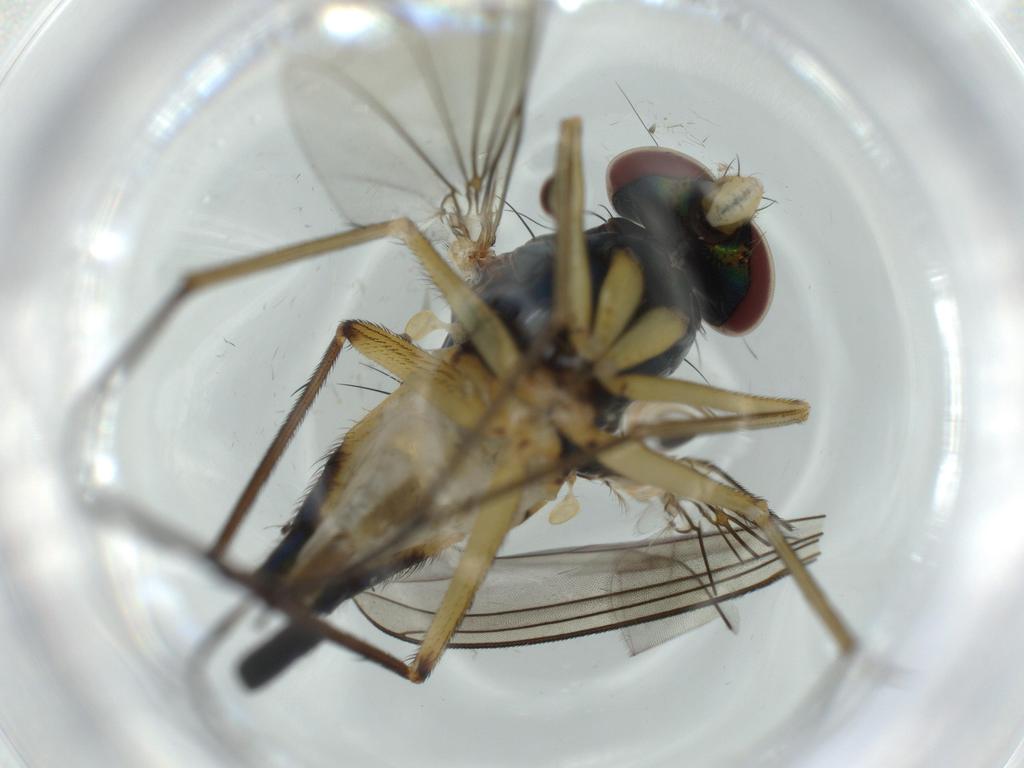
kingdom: Animalia
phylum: Arthropoda
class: Insecta
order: Diptera
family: Dolichopodidae
